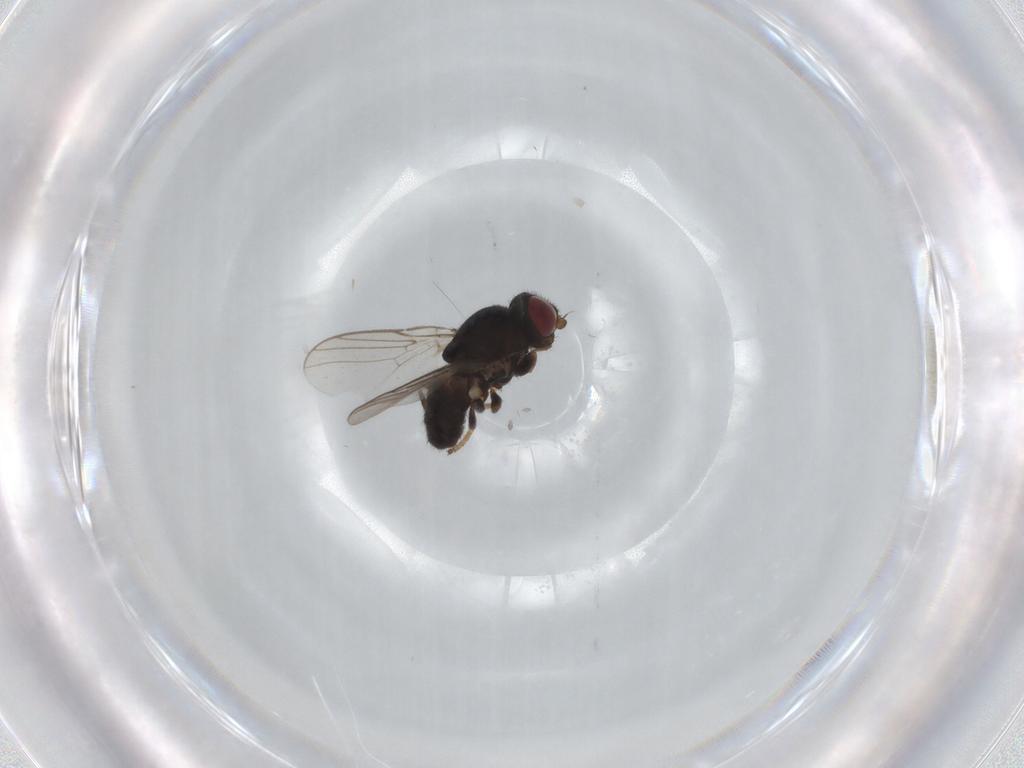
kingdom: Animalia
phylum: Arthropoda
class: Insecta
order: Diptera
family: Chloropidae
